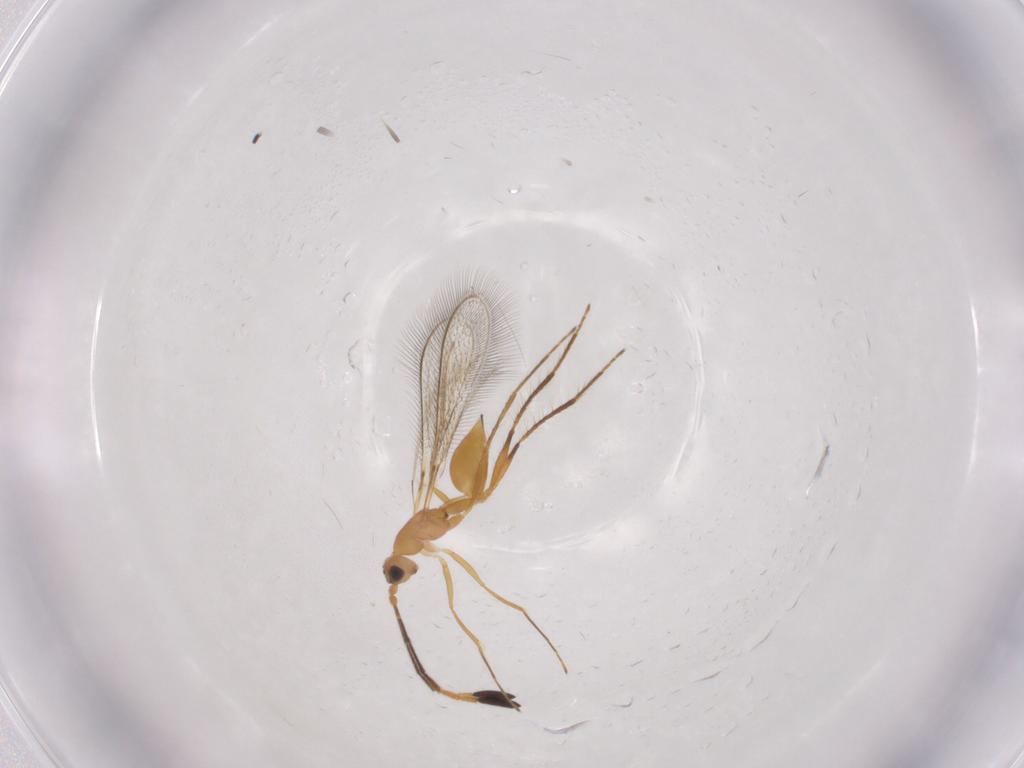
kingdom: Animalia
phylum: Arthropoda
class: Insecta
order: Hymenoptera
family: Mymaridae
